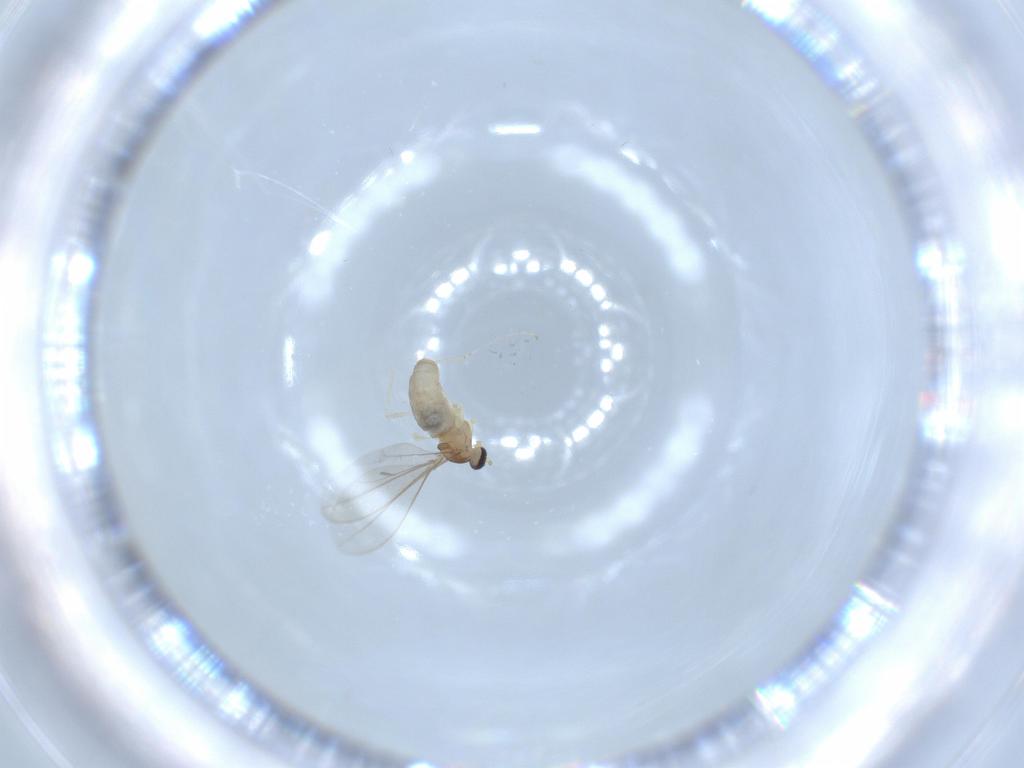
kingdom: Animalia
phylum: Arthropoda
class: Insecta
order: Diptera
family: Cecidomyiidae
